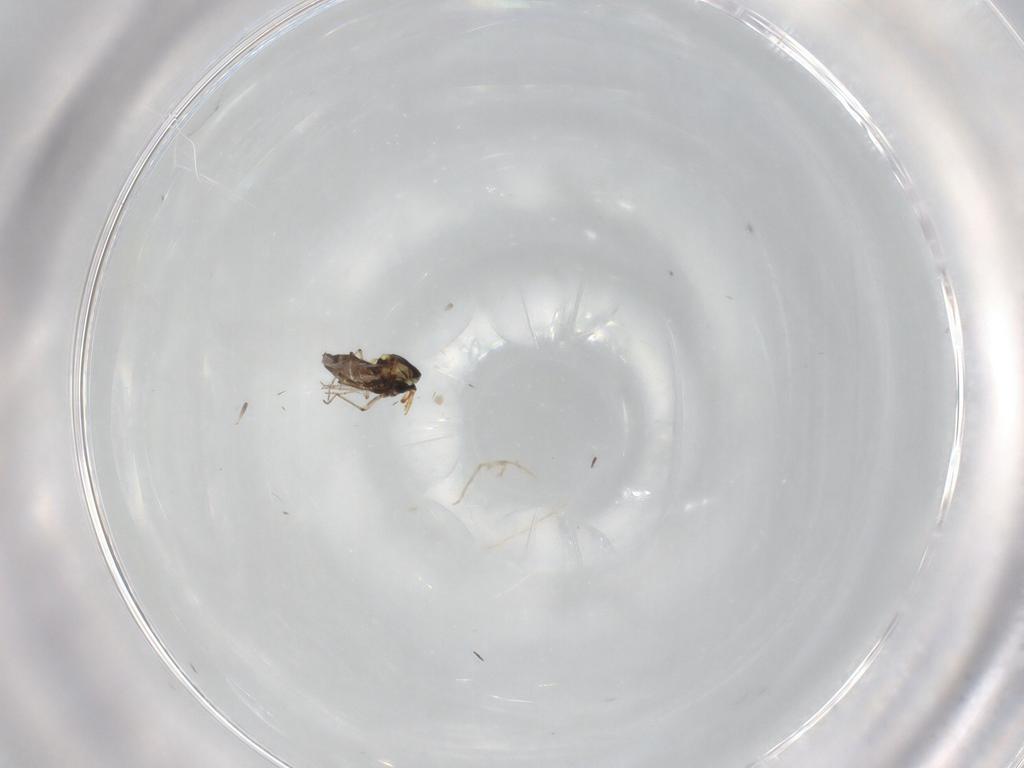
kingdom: Animalia
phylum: Arthropoda
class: Insecta
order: Diptera
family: Ceratopogonidae
